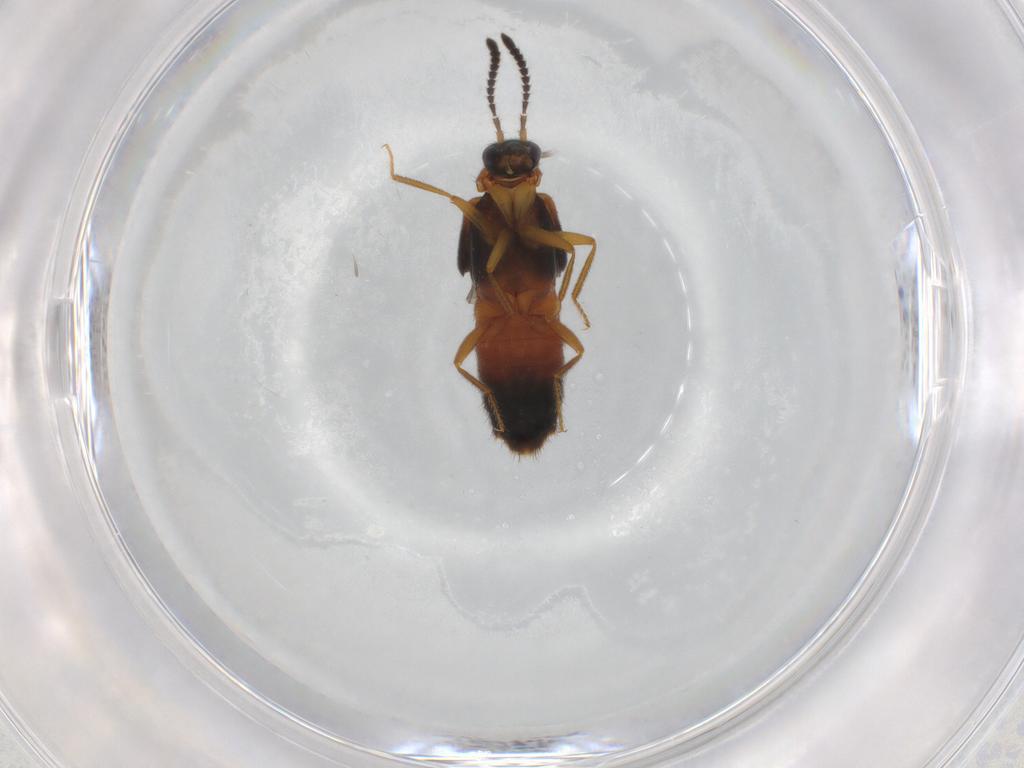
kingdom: Animalia
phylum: Arthropoda
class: Insecta
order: Coleoptera
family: Staphylinidae
